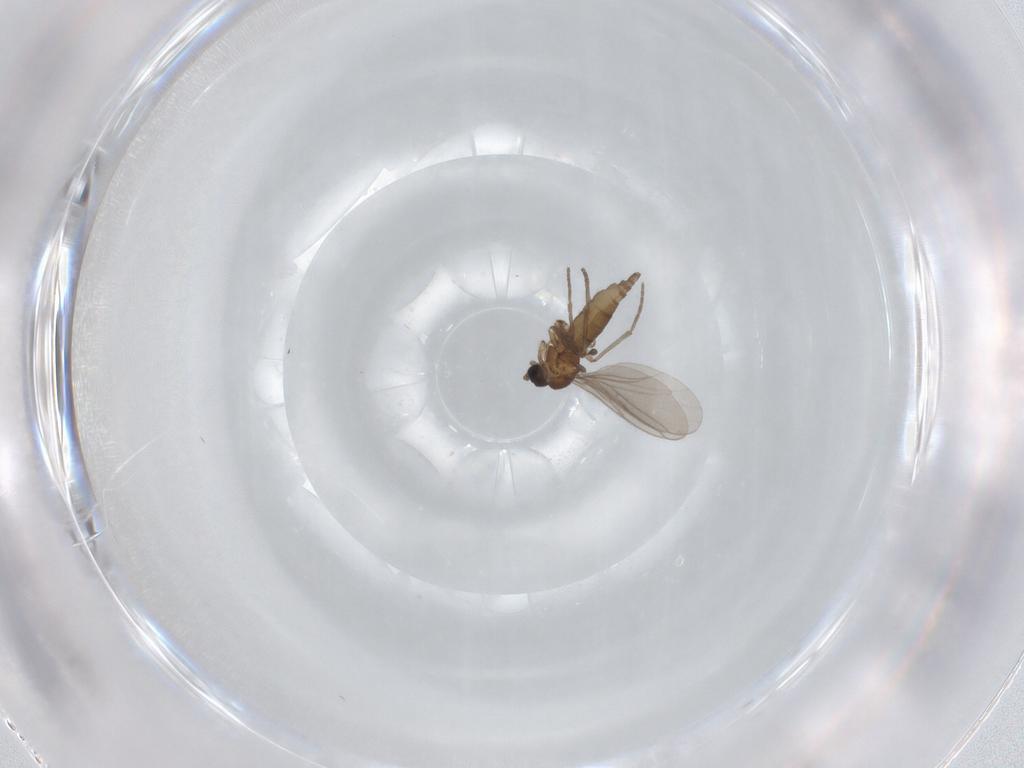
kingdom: Animalia
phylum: Arthropoda
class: Insecta
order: Diptera
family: Sciaridae
